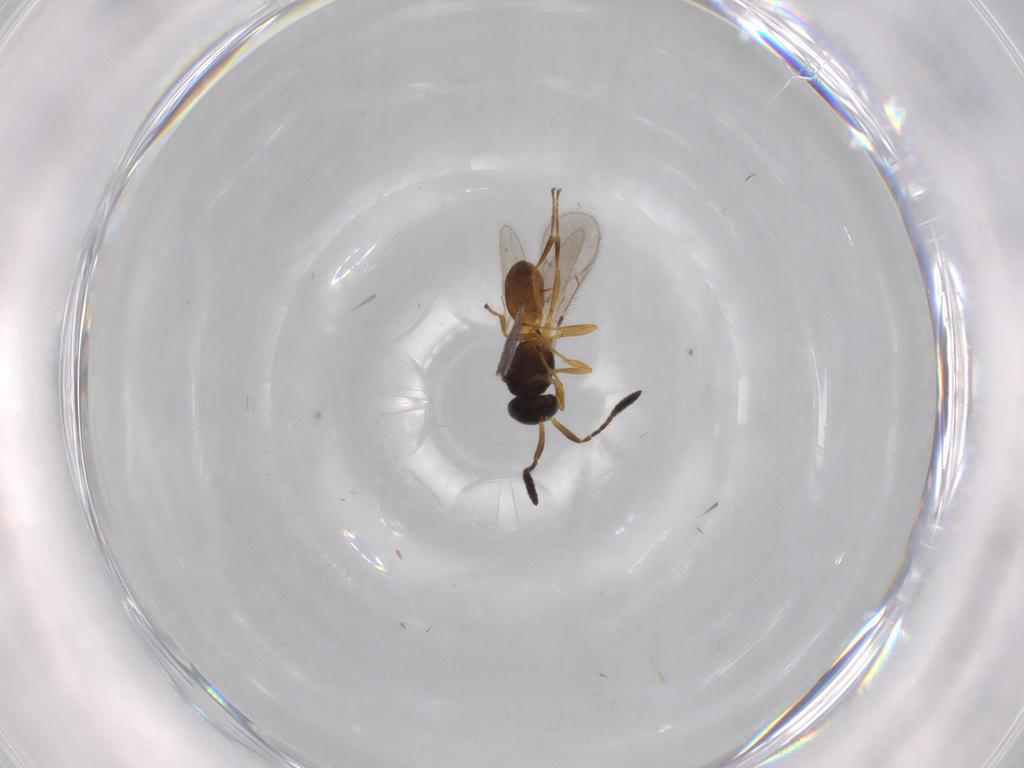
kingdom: Animalia
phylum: Arthropoda
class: Insecta
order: Hymenoptera
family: Scelionidae
